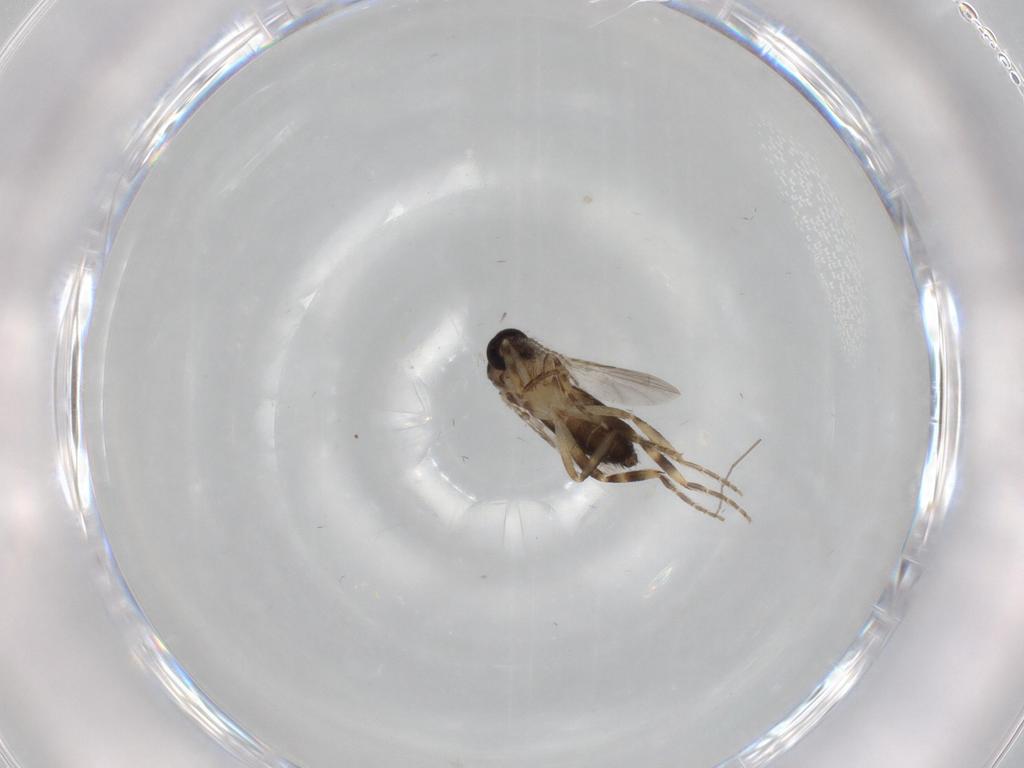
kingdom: Animalia
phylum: Arthropoda
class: Insecta
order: Diptera
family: Ceratopogonidae
